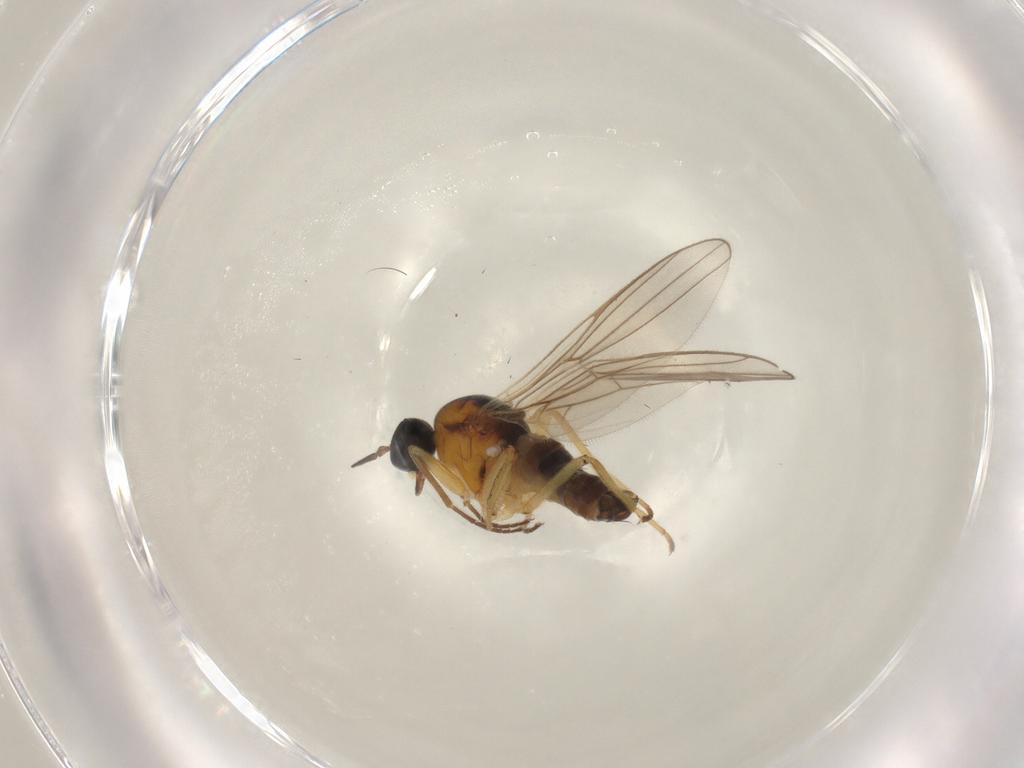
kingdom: Animalia
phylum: Arthropoda
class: Insecta
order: Diptera
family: Hybotidae
